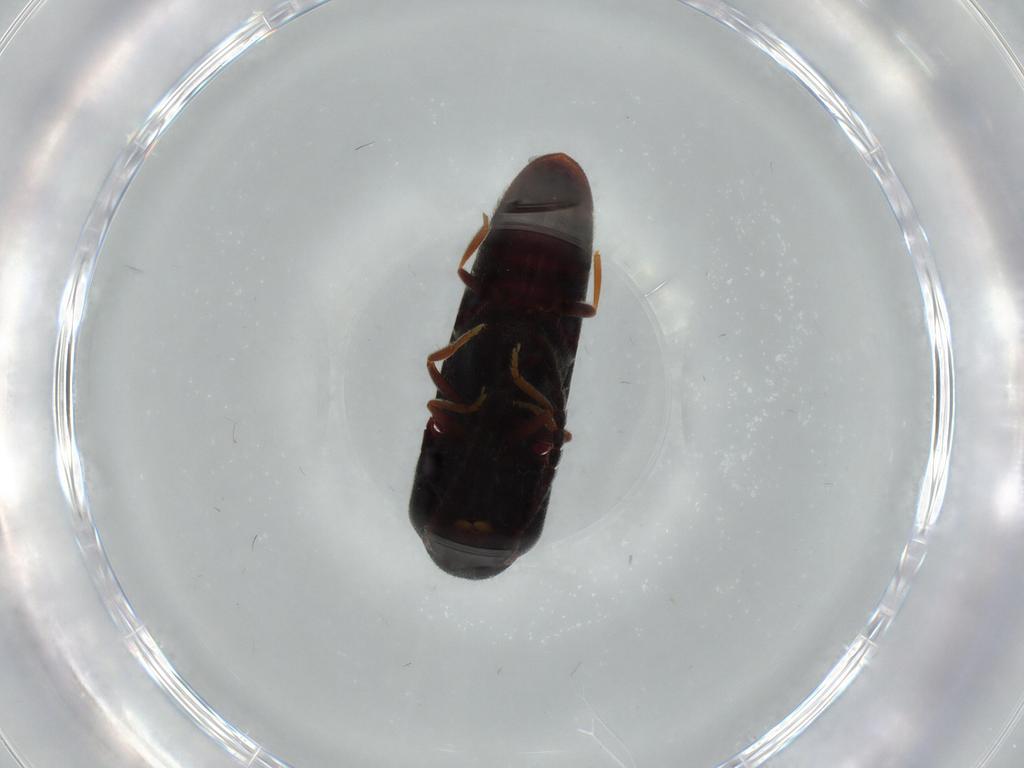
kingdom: Animalia
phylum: Arthropoda
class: Insecta
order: Coleoptera
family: Eucnemidae
